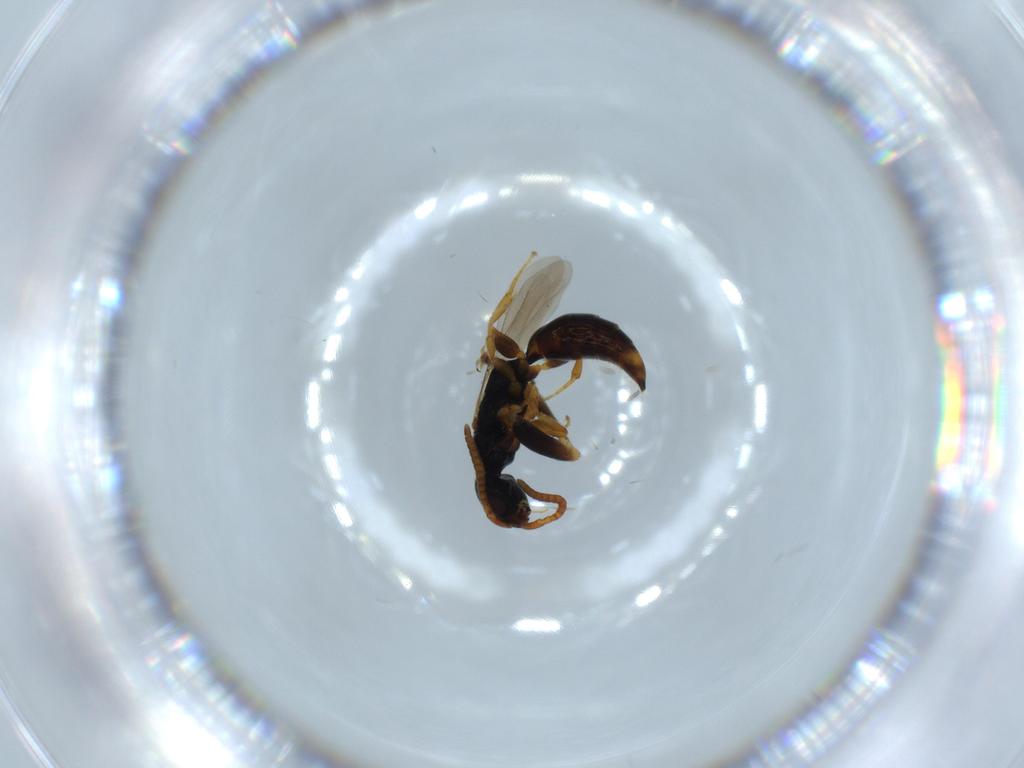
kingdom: Animalia
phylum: Arthropoda
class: Insecta
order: Hymenoptera
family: Bethylidae
